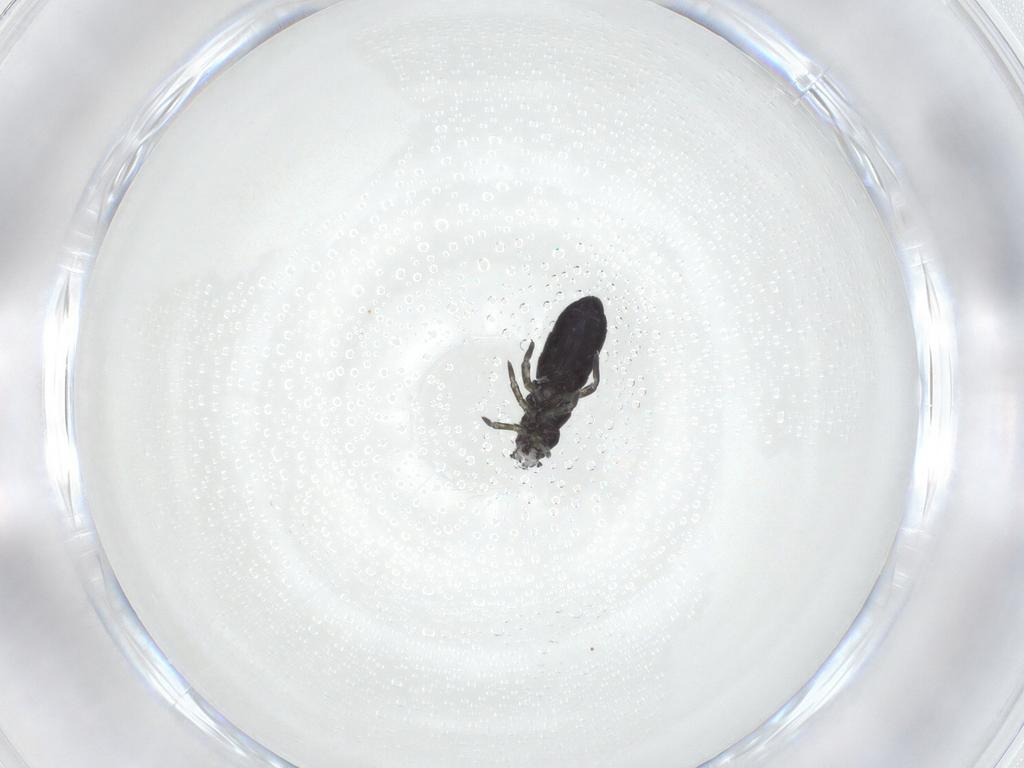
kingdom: Animalia
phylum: Arthropoda
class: Collembola
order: Entomobryomorpha
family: Isotomidae
